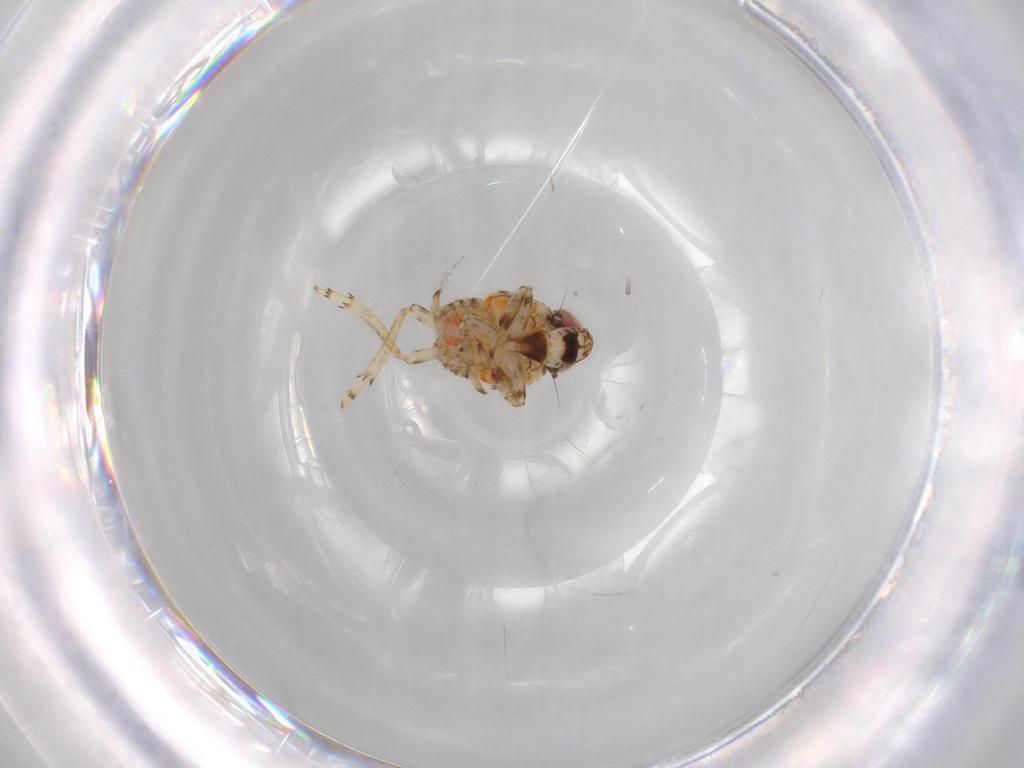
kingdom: Animalia
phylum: Arthropoda
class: Insecta
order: Hemiptera
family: Issidae
